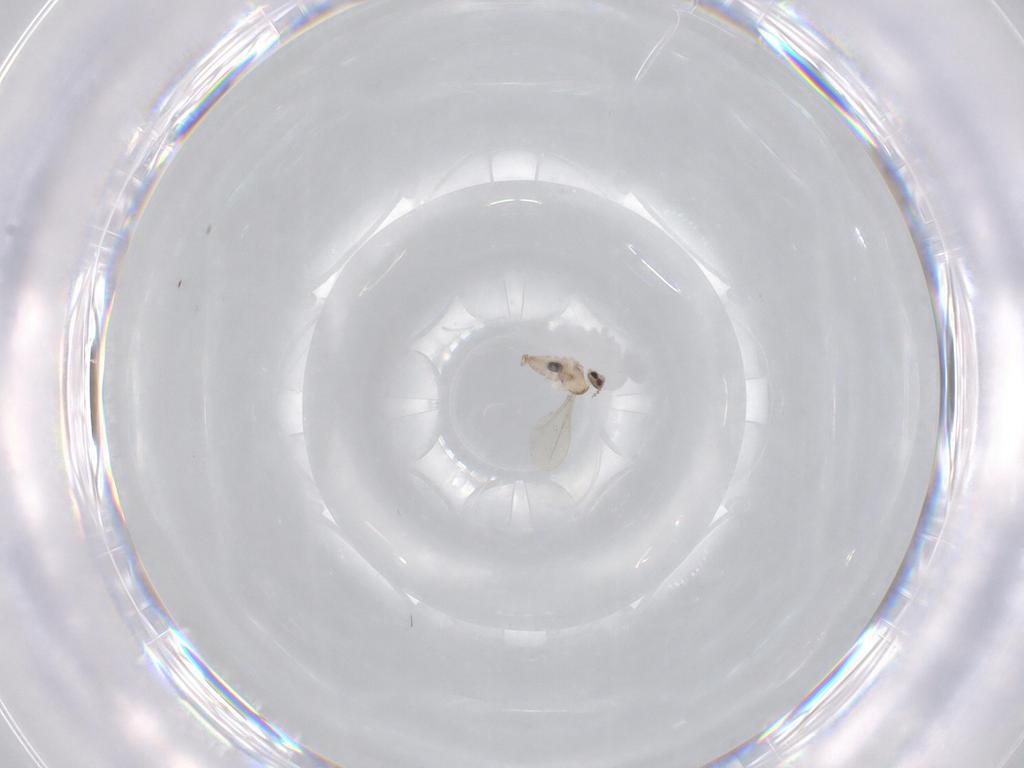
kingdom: Animalia
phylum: Arthropoda
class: Insecta
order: Diptera
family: Cecidomyiidae
